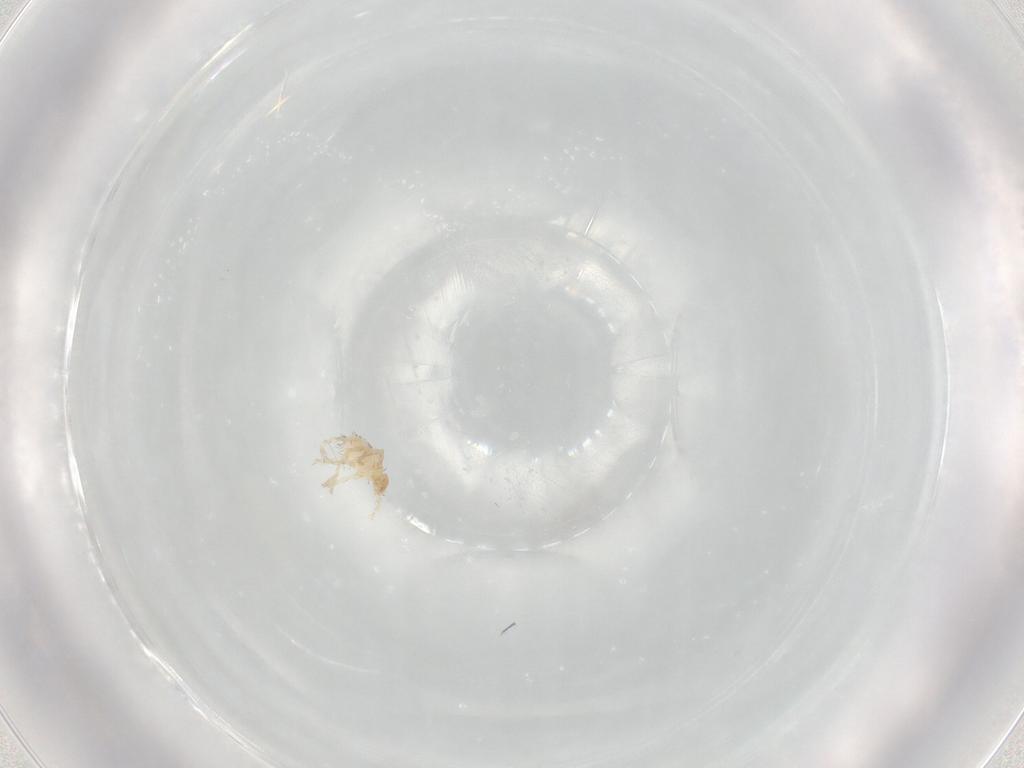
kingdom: Animalia
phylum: Arthropoda
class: Arachnida
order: Trombidiformes
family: Erythraeidae
